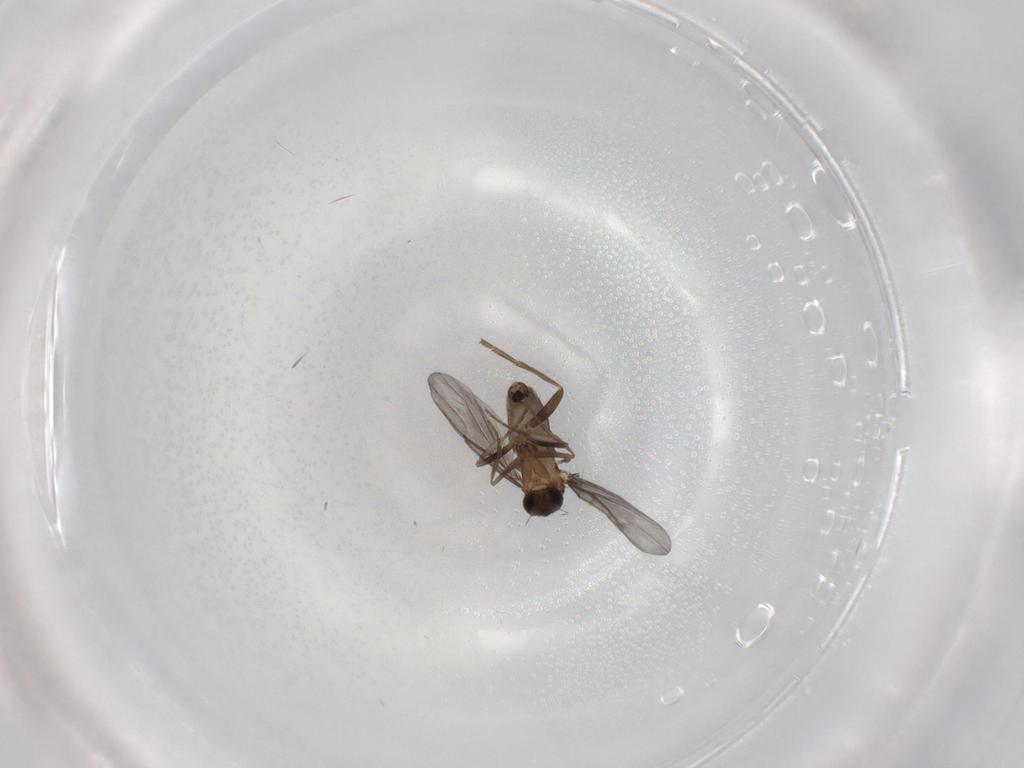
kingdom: Animalia
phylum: Arthropoda
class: Insecta
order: Diptera
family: Phoridae
